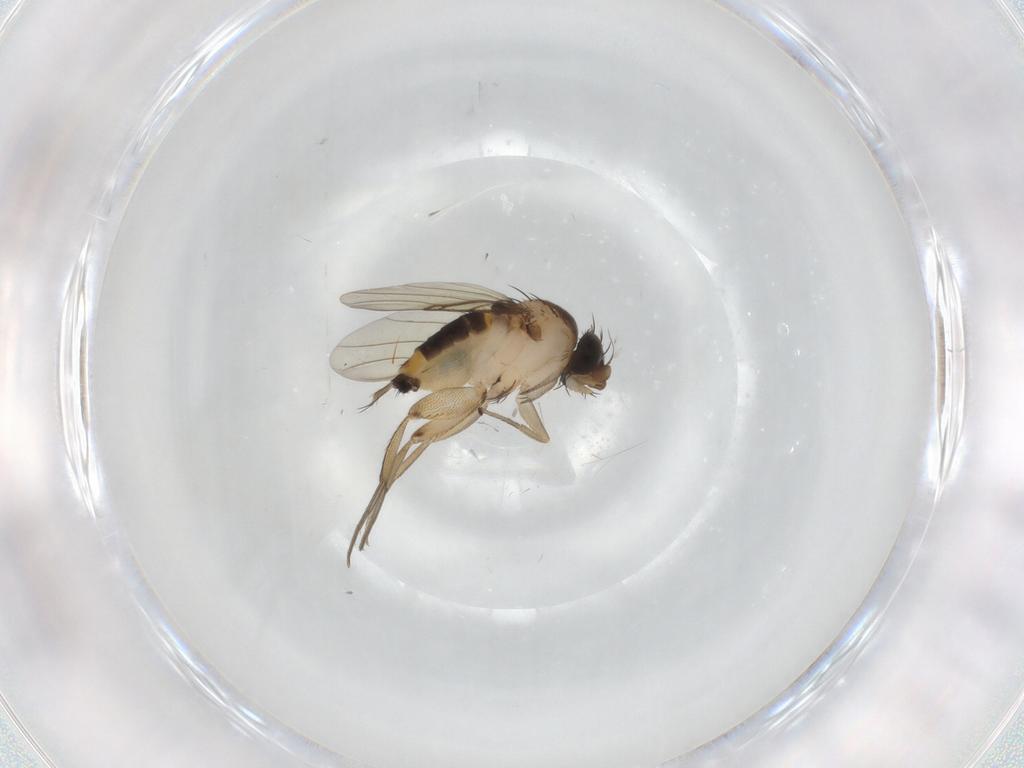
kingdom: Animalia
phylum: Arthropoda
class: Insecta
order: Diptera
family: Phoridae
